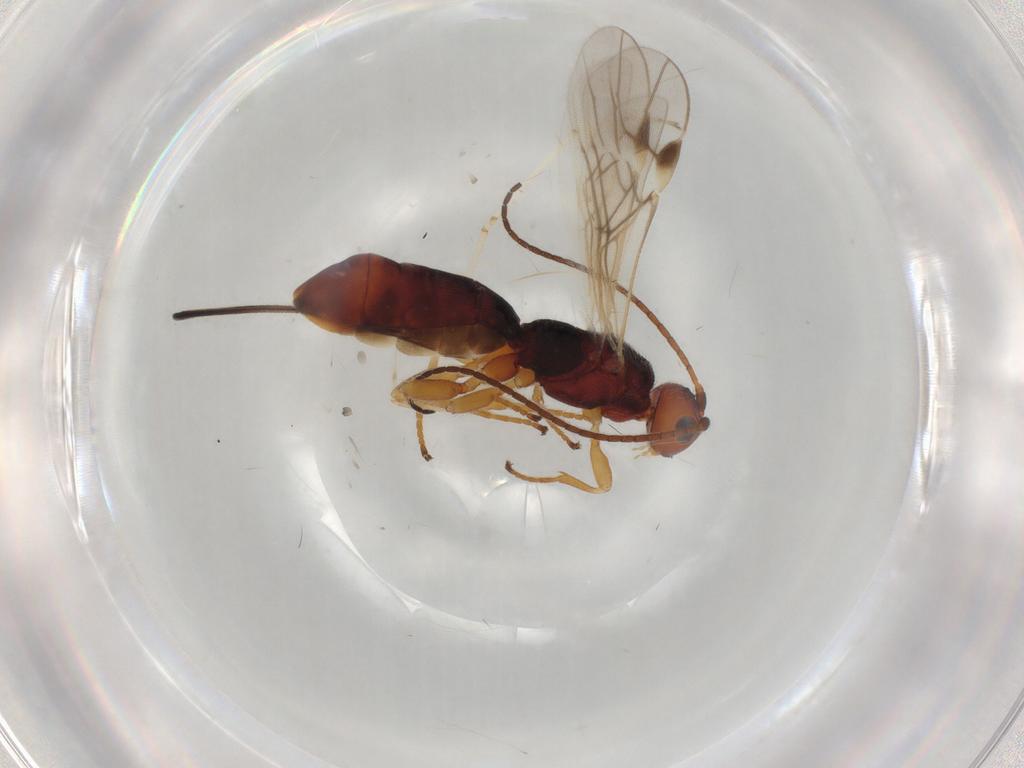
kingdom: Animalia
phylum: Arthropoda
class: Insecta
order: Hymenoptera
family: Braconidae
